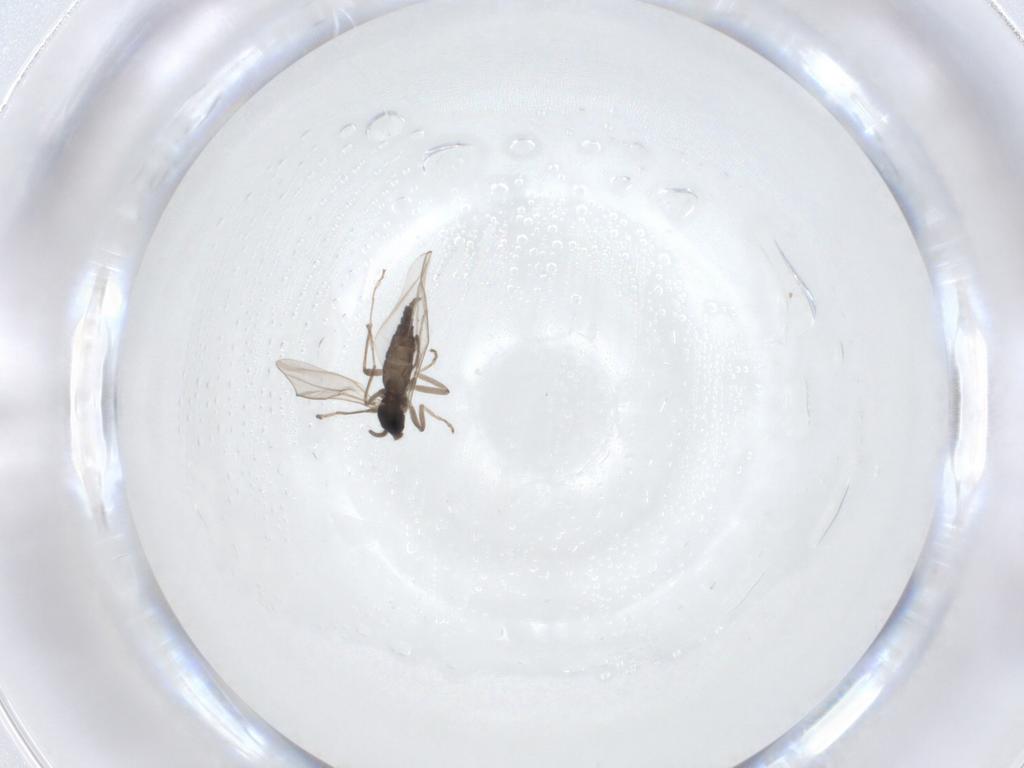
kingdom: Animalia
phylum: Arthropoda
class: Insecta
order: Diptera
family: Cecidomyiidae
